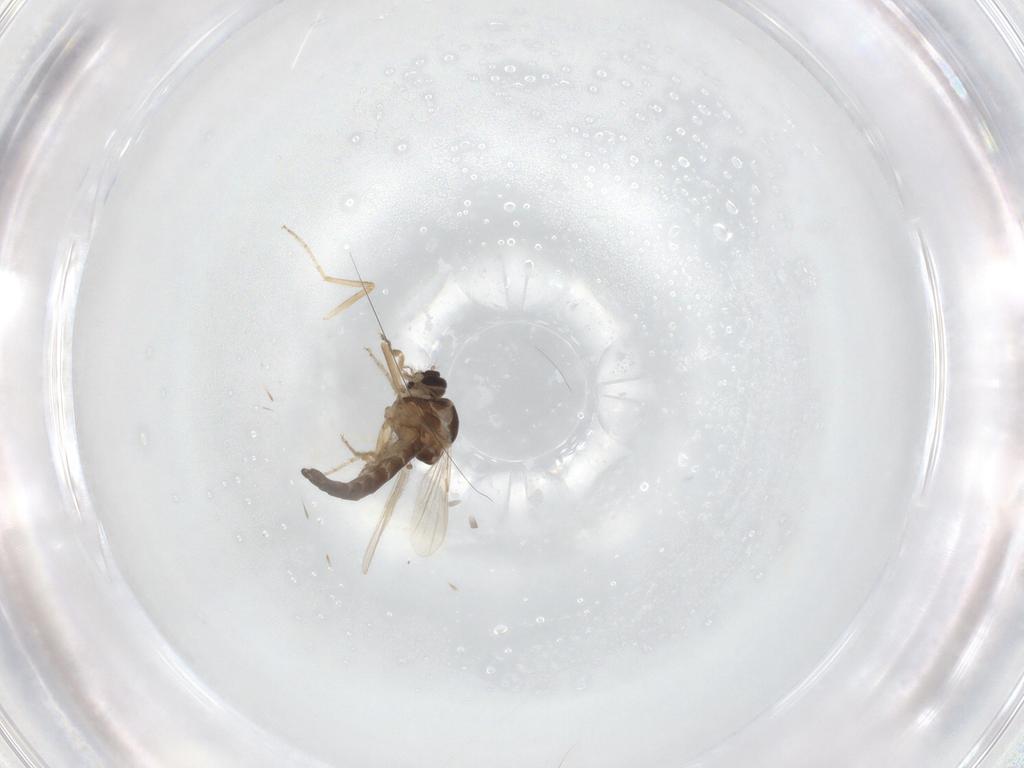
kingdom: Animalia
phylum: Arthropoda
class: Insecta
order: Diptera
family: Ceratopogonidae
